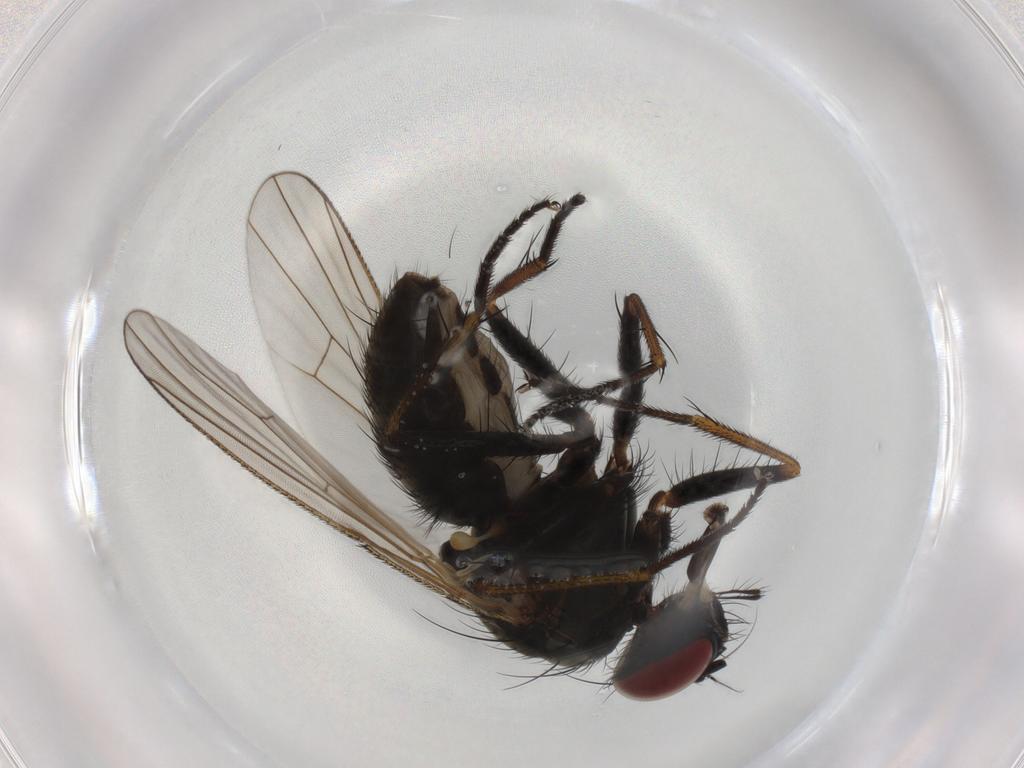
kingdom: Animalia
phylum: Arthropoda
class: Insecta
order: Diptera
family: Muscidae
